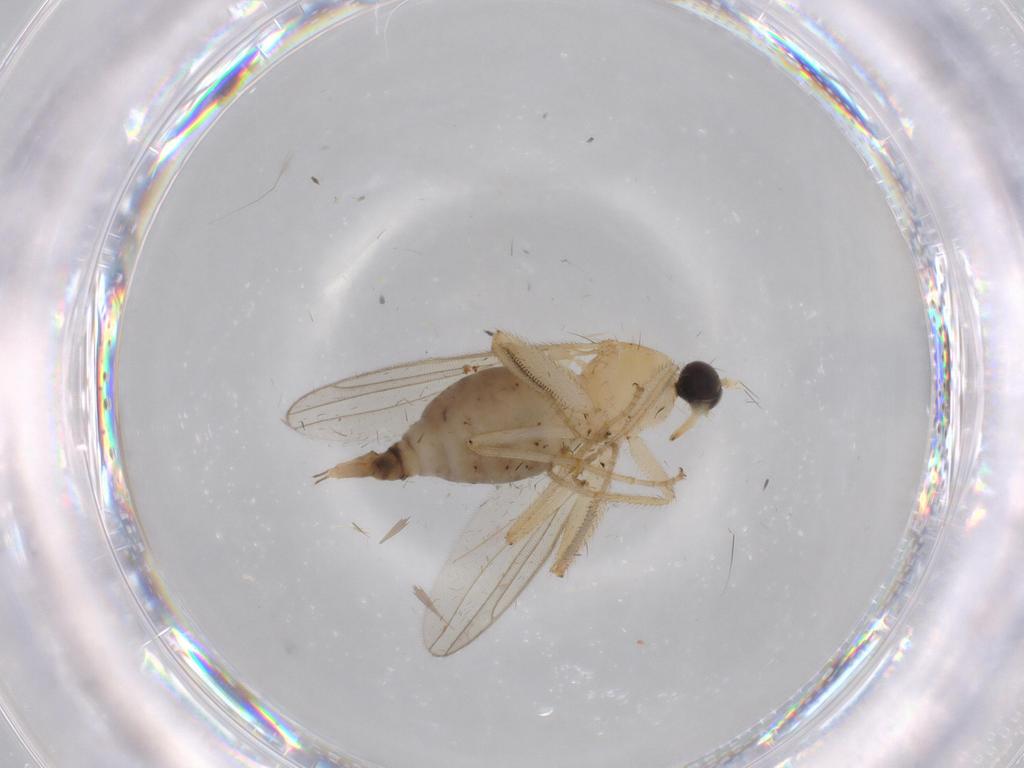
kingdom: Animalia
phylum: Arthropoda
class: Insecta
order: Diptera
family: Hybotidae
